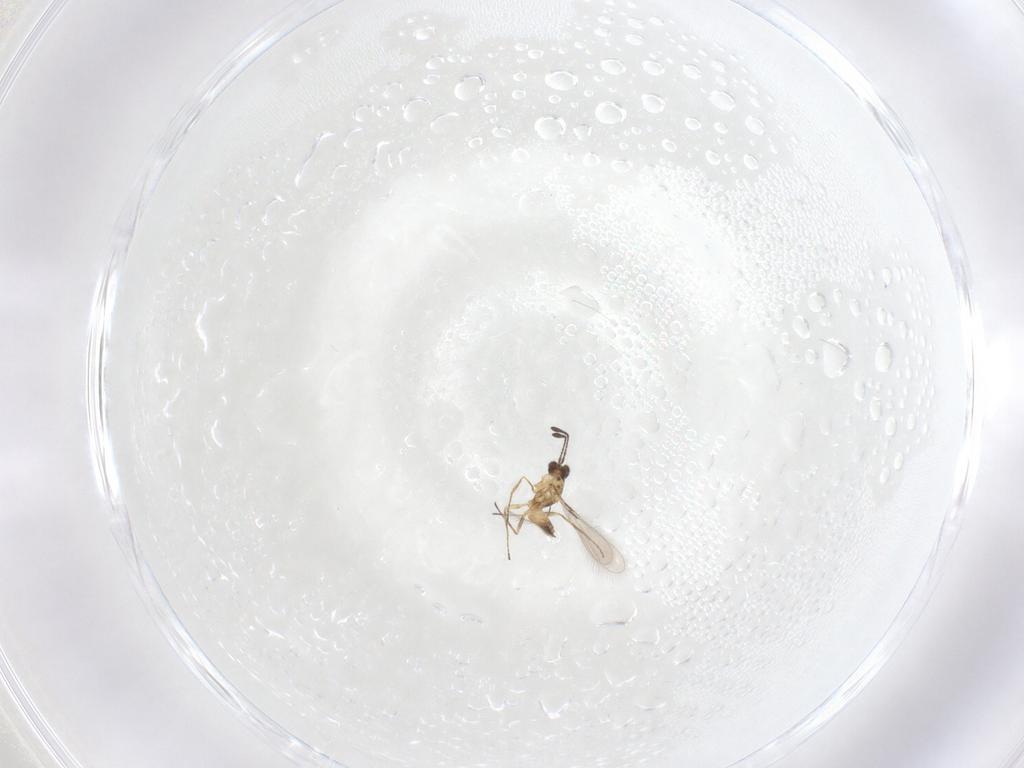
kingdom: Animalia
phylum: Arthropoda
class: Insecta
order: Hymenoptera
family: Mymaridae
